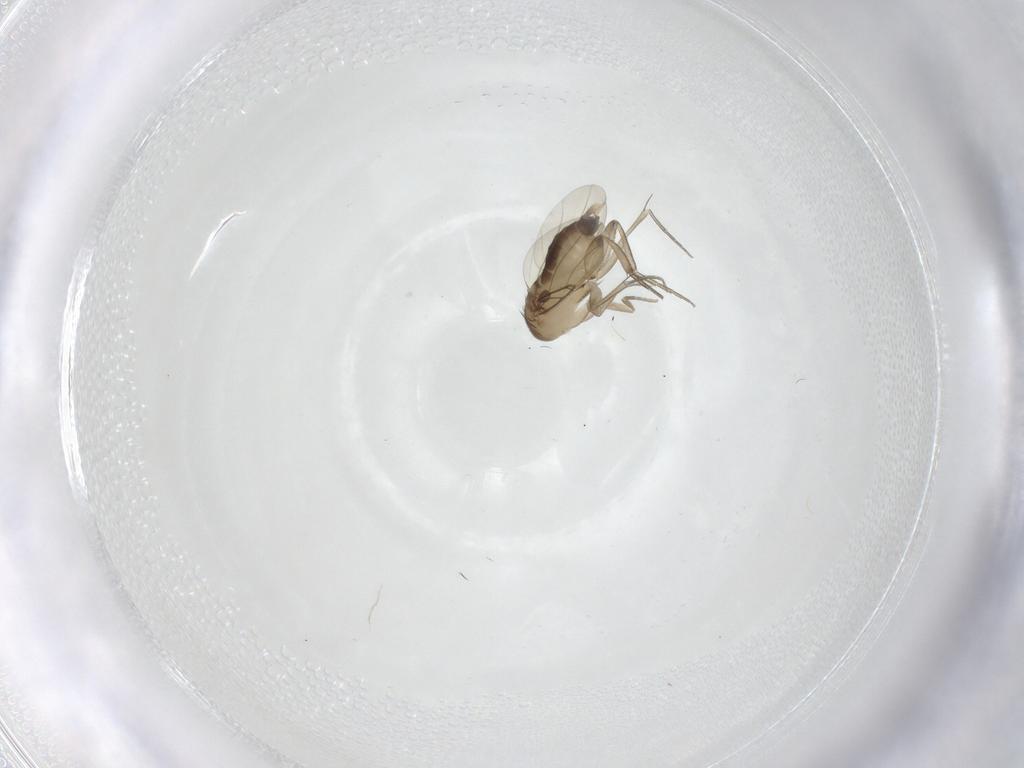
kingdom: Animalia
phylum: Arthropoda
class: Insecta
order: Diptera
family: Phoridae
